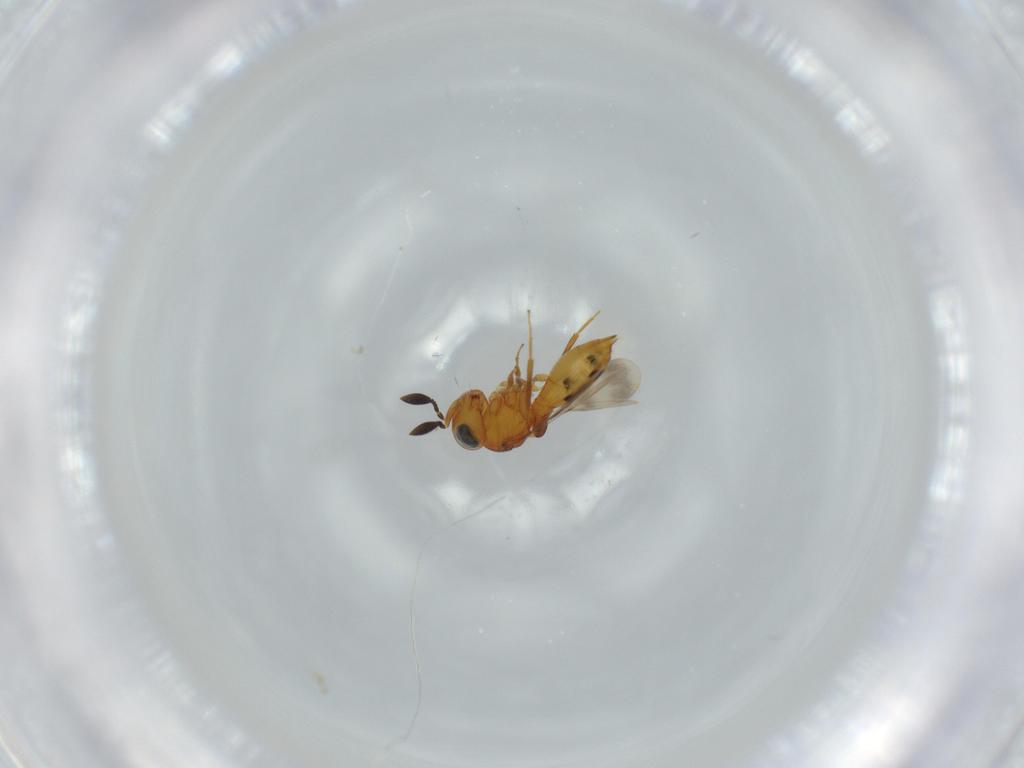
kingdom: Animalia
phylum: Arthropoda
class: Insecta
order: Hymenoptera
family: Scelionidae
